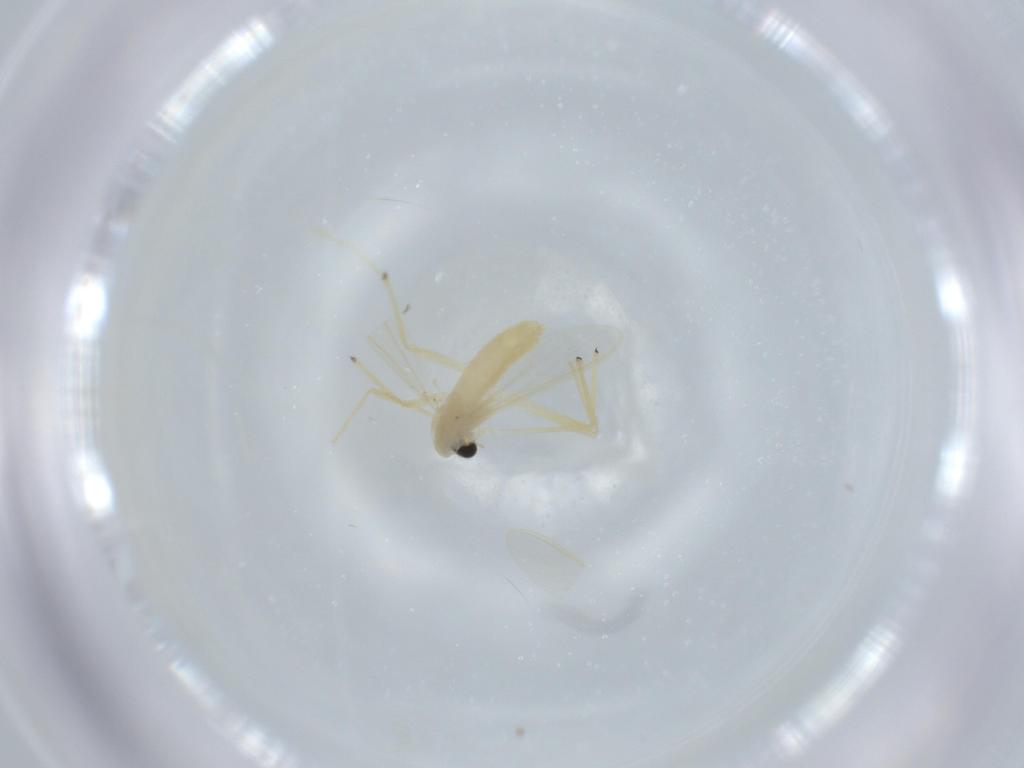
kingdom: Animalia
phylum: Arthropoda
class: Insecta
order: Diptera
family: Chironomidae
